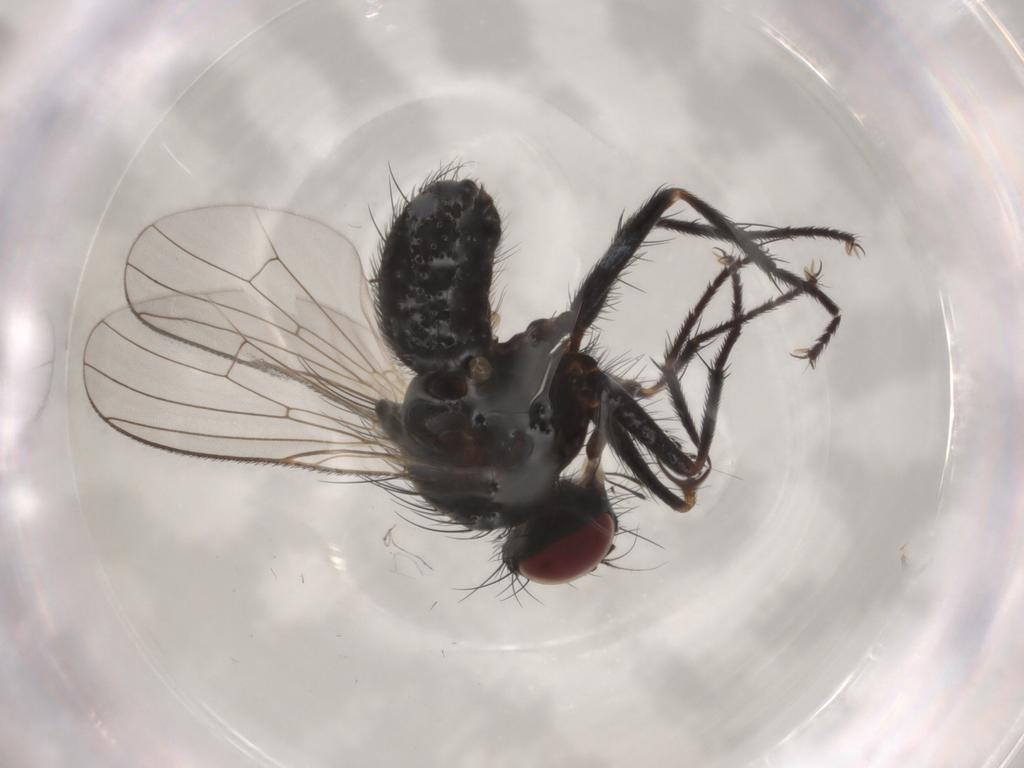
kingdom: Animalia
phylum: Arthropoda
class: Insecta
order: Diptera
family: Muscidae
